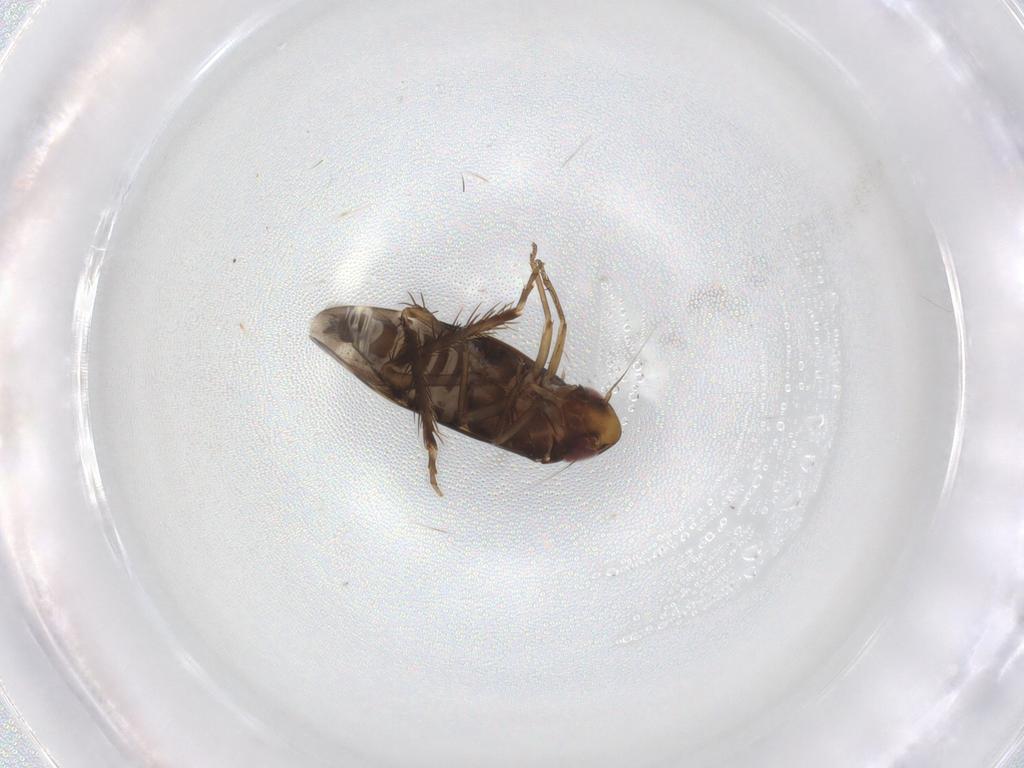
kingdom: Animalia
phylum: Arthropoda
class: Insecta
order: Hemiptera
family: Cicadellidae
